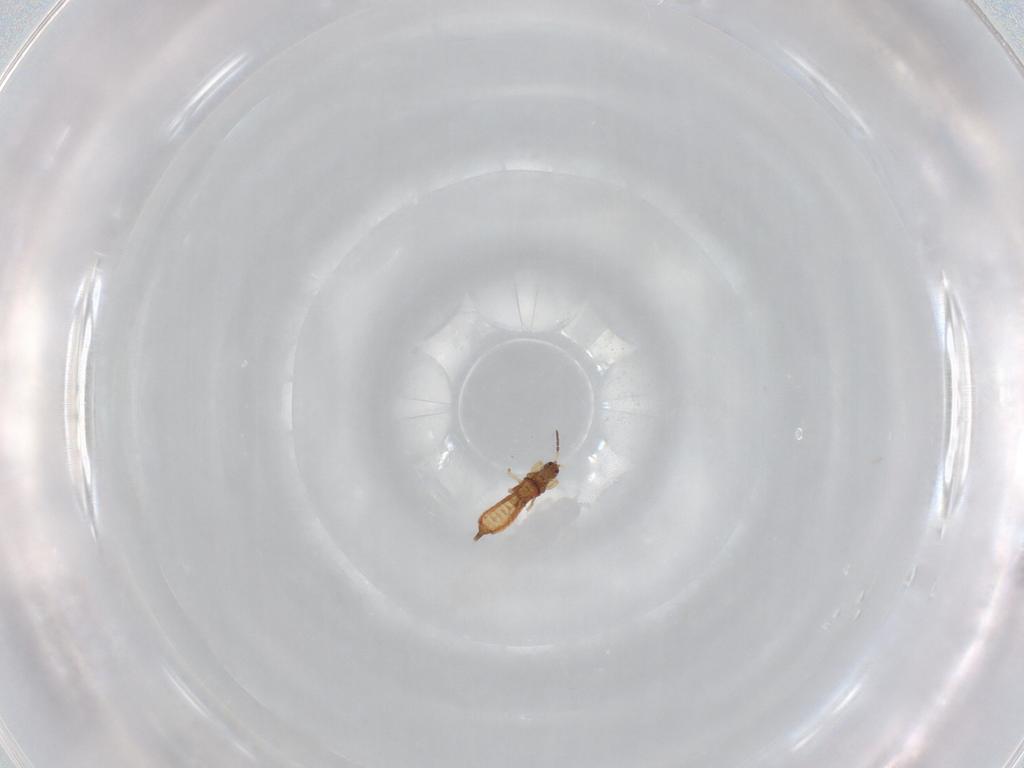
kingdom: Animalia
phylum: Arthropoda
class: Insecta
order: Thysanoptera
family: Phlaeothripidae
